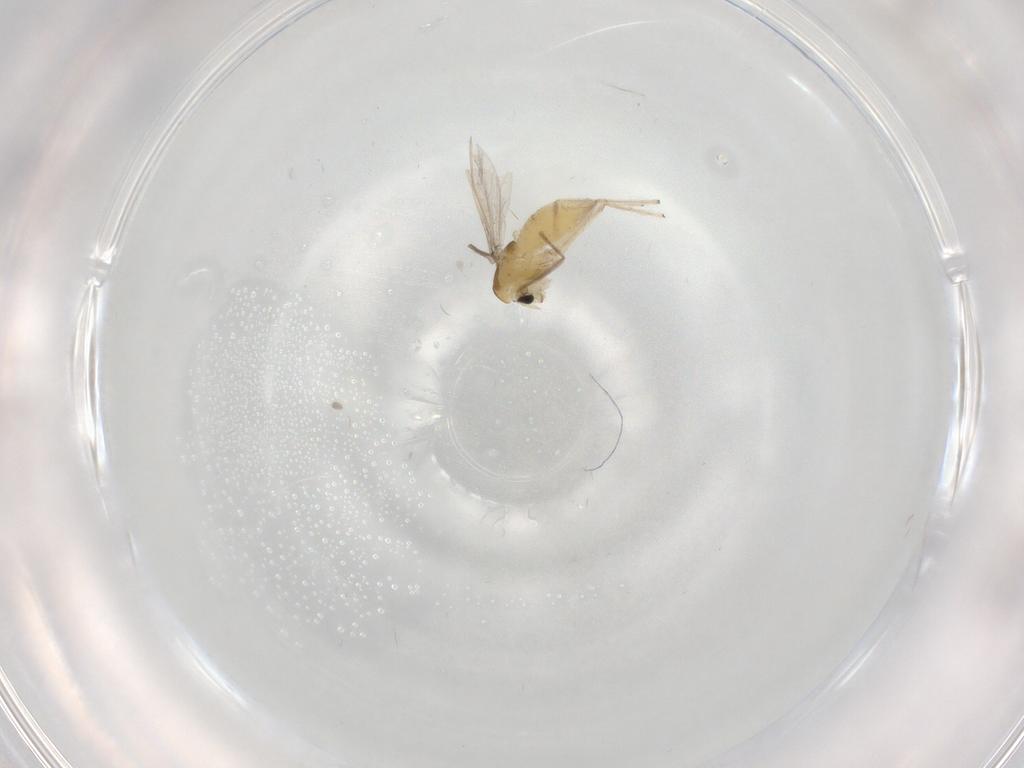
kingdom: Animalia
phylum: Arthropoda
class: Insecta
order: Diptera
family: Chironomidae
